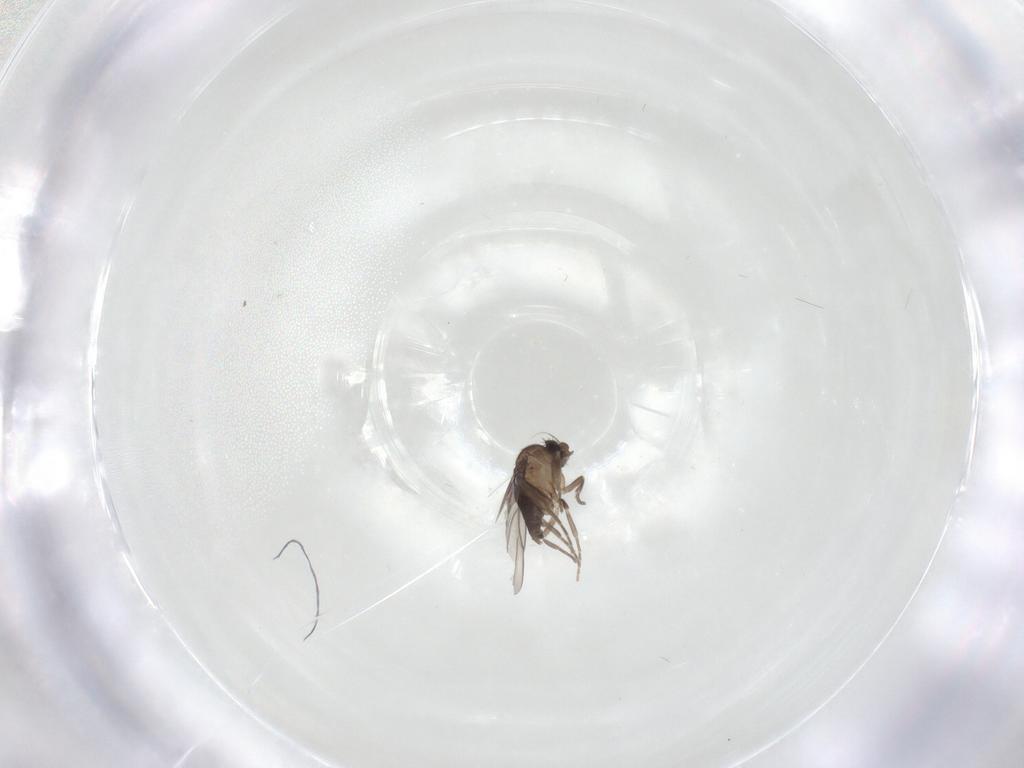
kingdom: Animalia
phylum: Arthropoda
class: Insecta
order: Diptera
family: Phoridae
